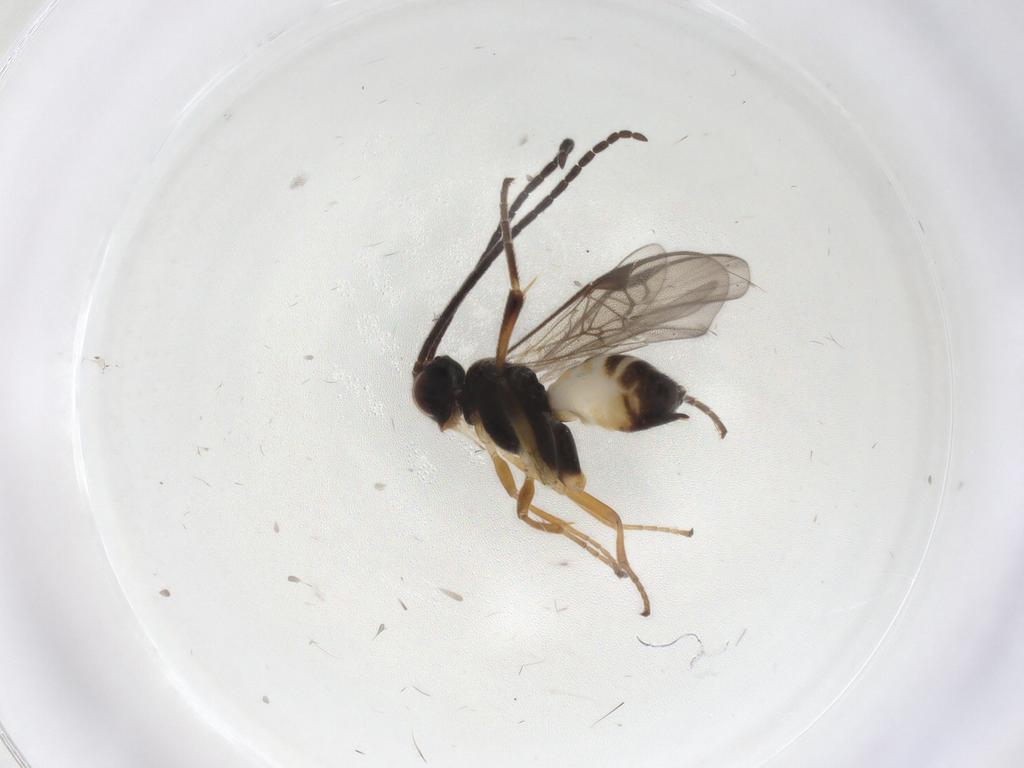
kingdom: Animalia
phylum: Arthropoda
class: Insecta
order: Hymenoptera
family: Braconidae
